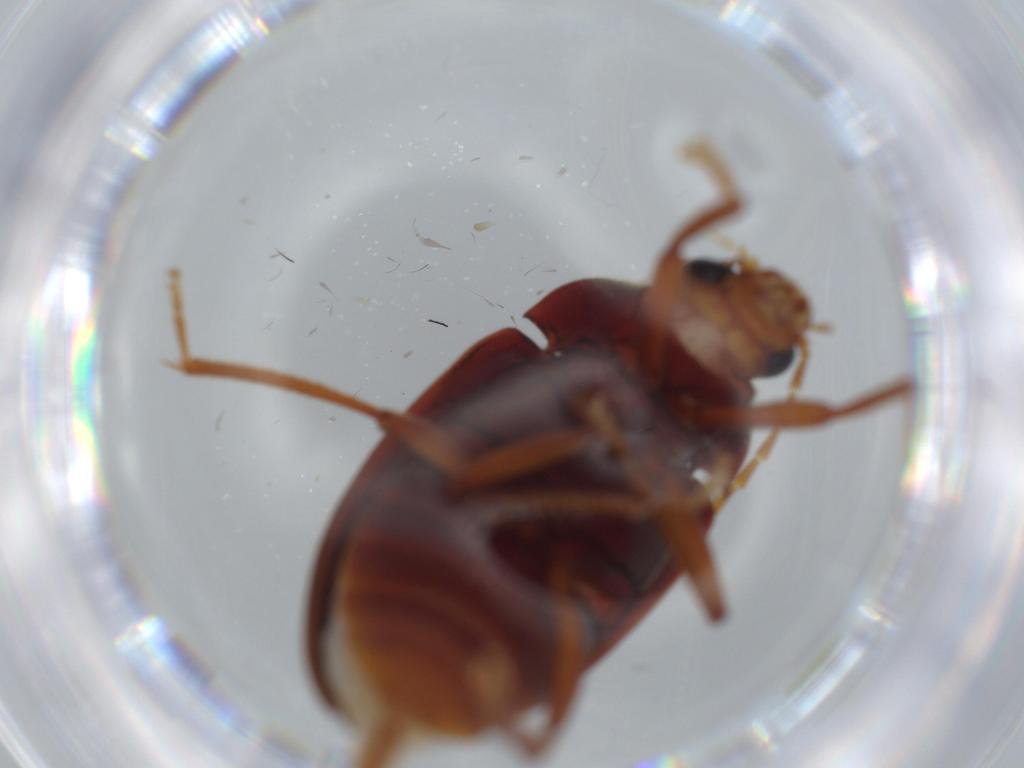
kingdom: Animalia
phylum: Arthropoda
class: Insecta
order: Coleoptera
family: Ptilodactylidae
